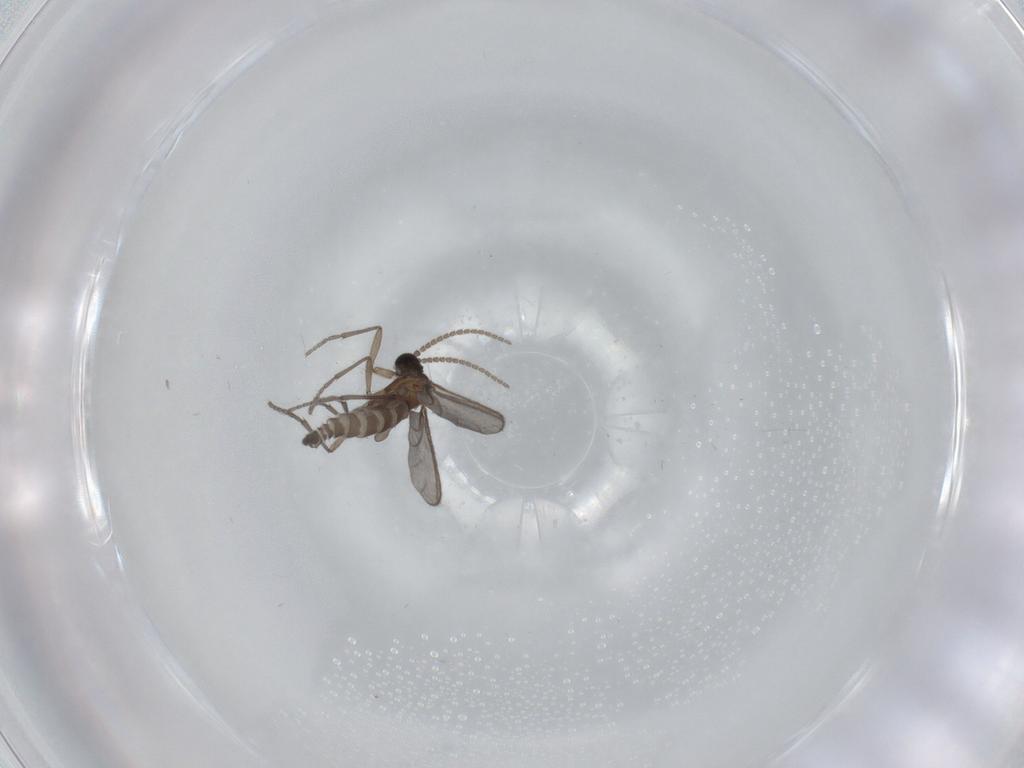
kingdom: Animalia
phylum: Arthropoda
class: Insecta
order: Diptera
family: Sciaridae
